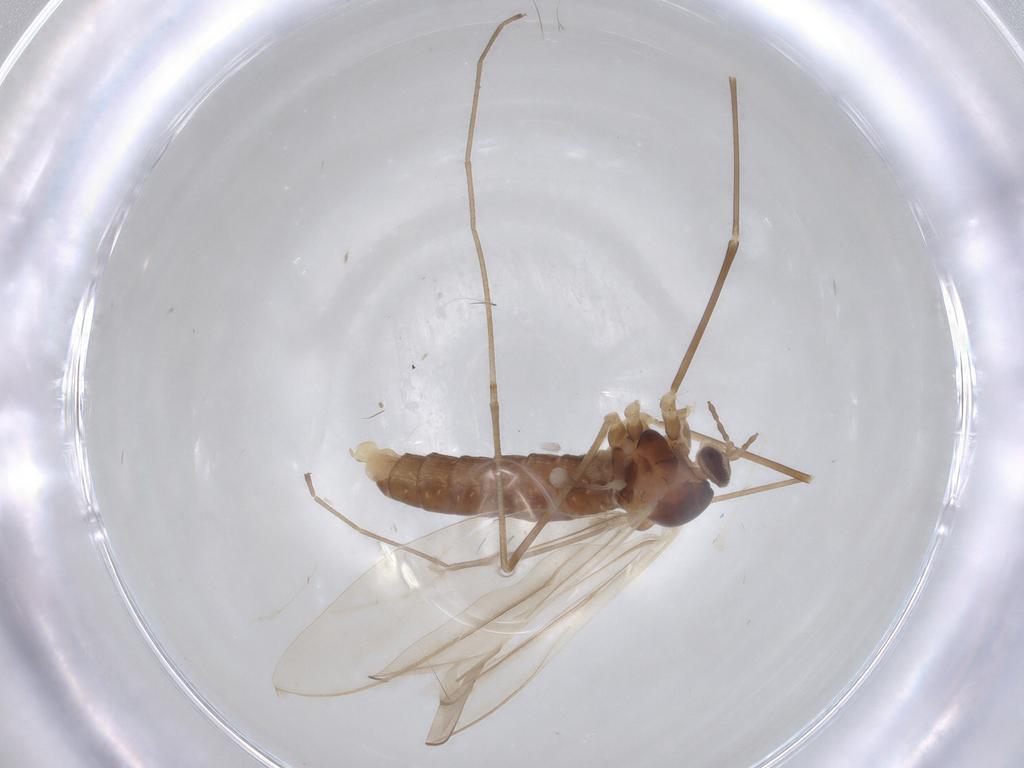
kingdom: Animalia
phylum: Arthropoda
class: Insecta
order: Diptera
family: Cecidomyiidae
